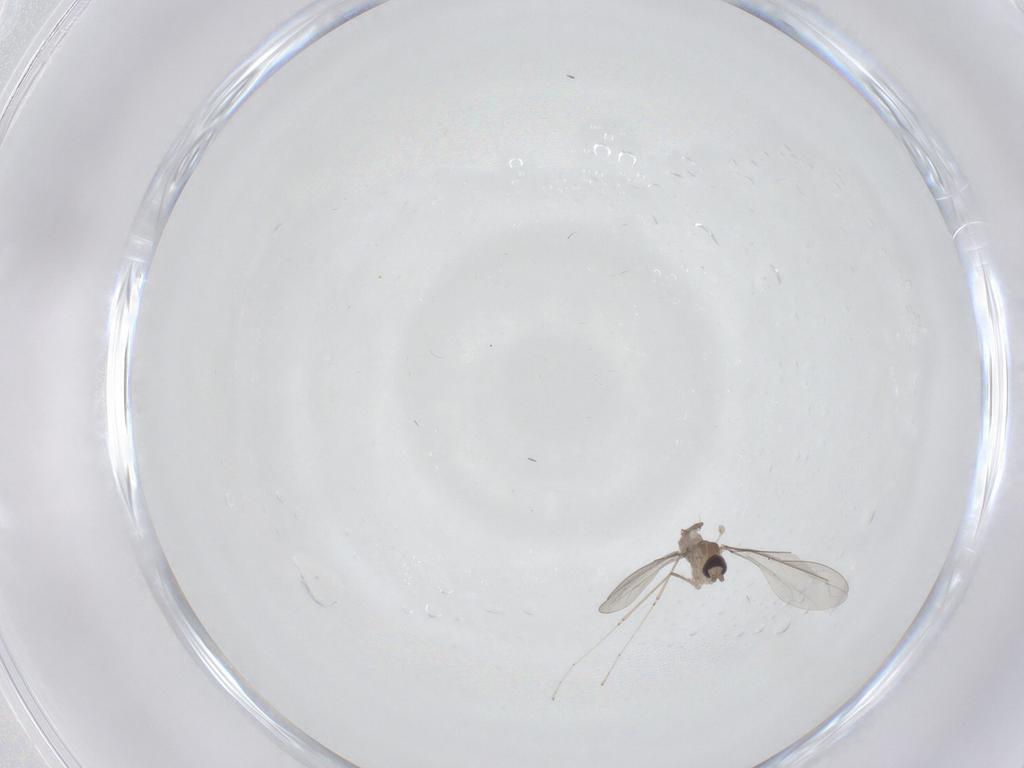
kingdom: Animalia
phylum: Arthropoda
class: Insecta
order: Diptera
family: Cecidomyiidae
